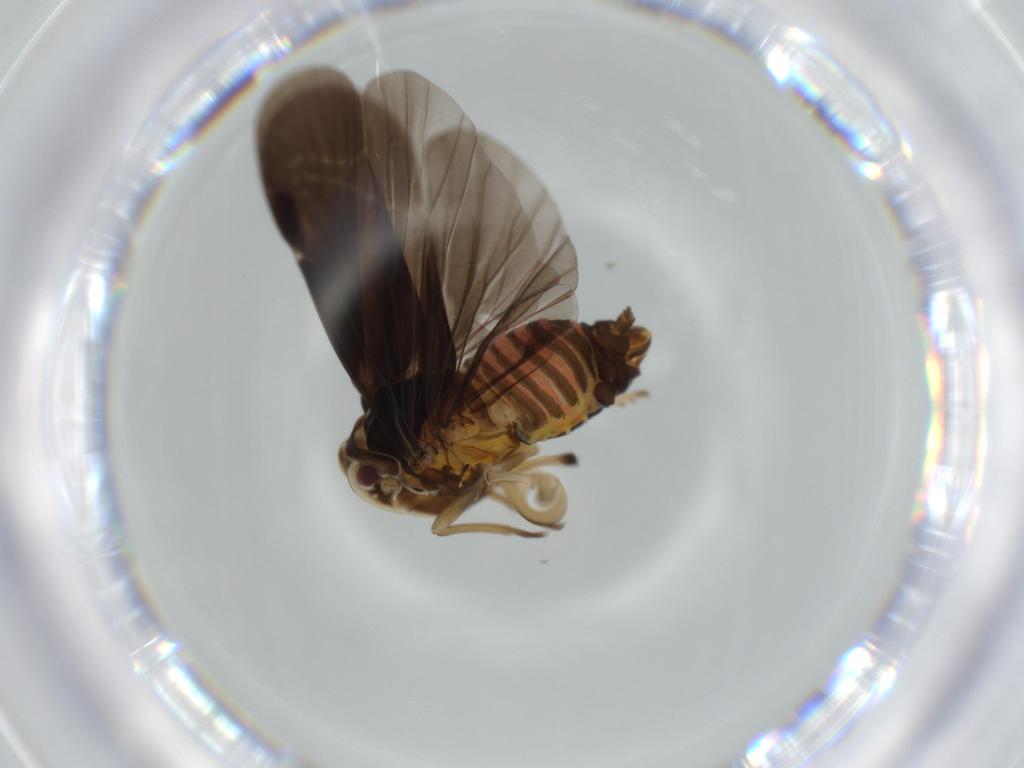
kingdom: Animalia
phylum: Arthropoda
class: Insecta
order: Hemiptera
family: Derbidae
